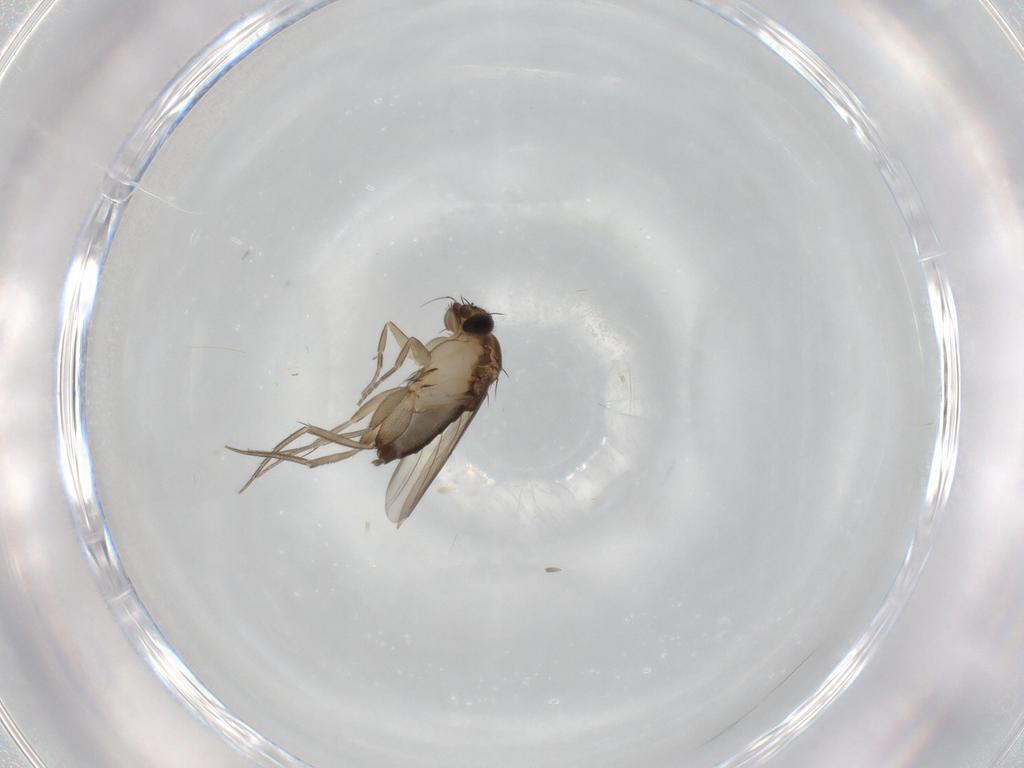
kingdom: Animalia
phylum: Arthropoda
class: Insecta
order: Diptera
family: Phoridae
